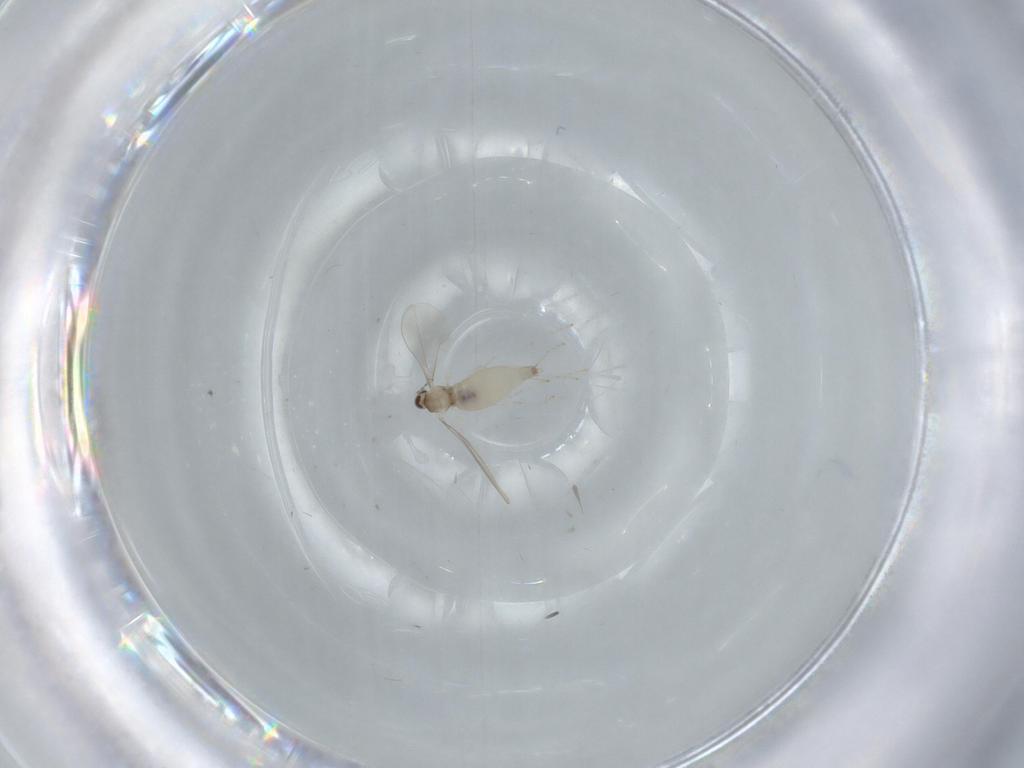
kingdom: Animalia
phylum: Arthropoda
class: Insecta
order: Diptera
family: Cecidomyiidae
